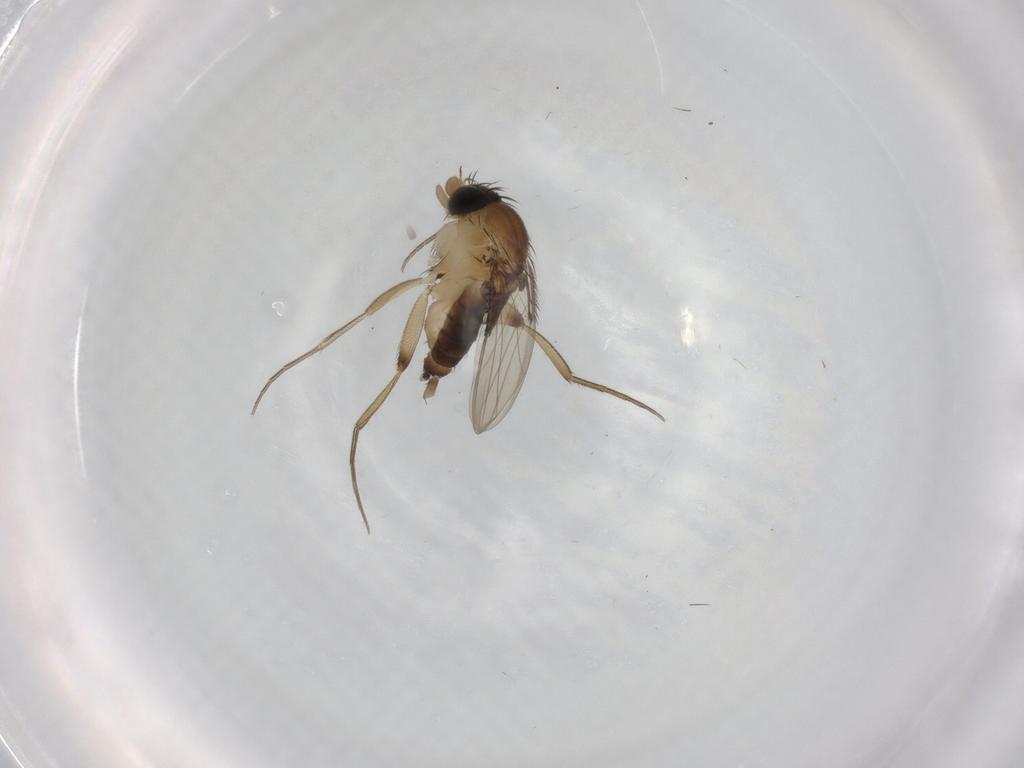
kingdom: Animalia
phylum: Arthropoda
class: Insecta
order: Diptera
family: Phoridae
